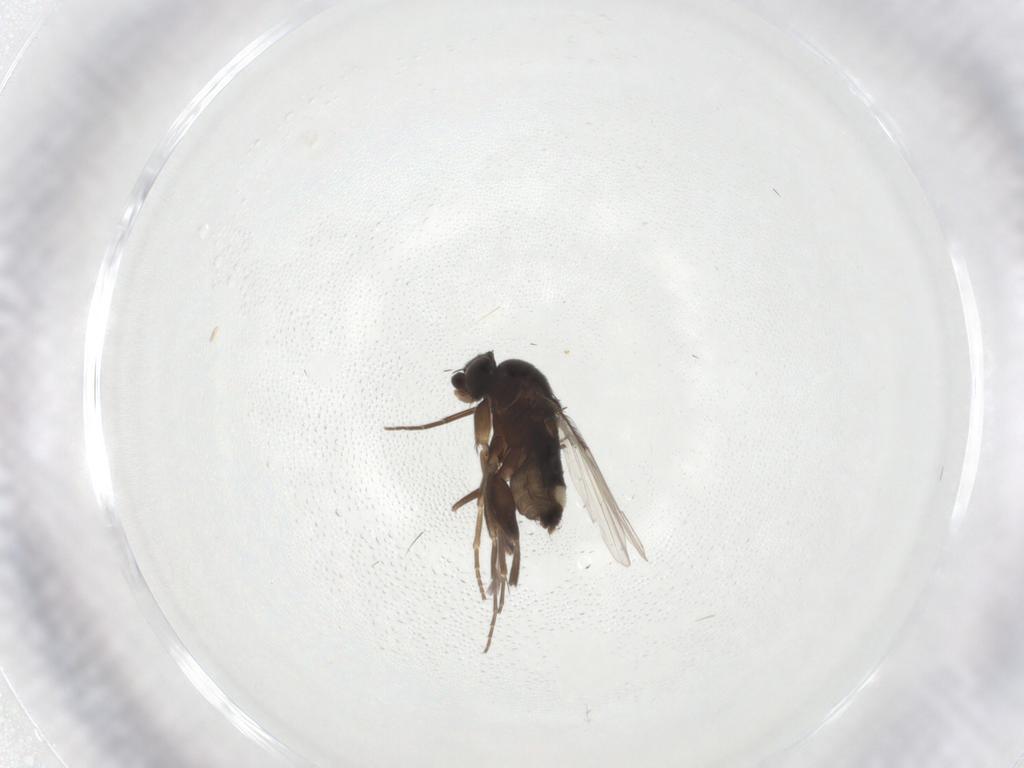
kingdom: Animalia
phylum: Arthropoda
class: Insecta
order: Diptera
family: Phoridae
